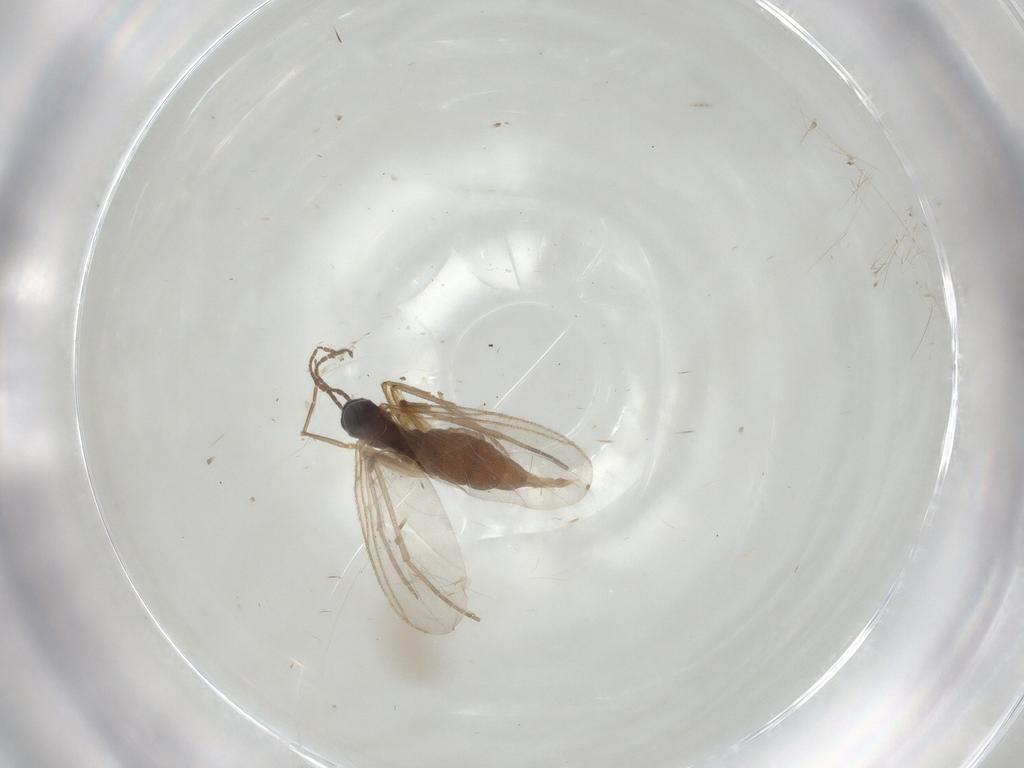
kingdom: Animalia
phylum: Arthropoda
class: Insecta
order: Diptera
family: Sciaridae
